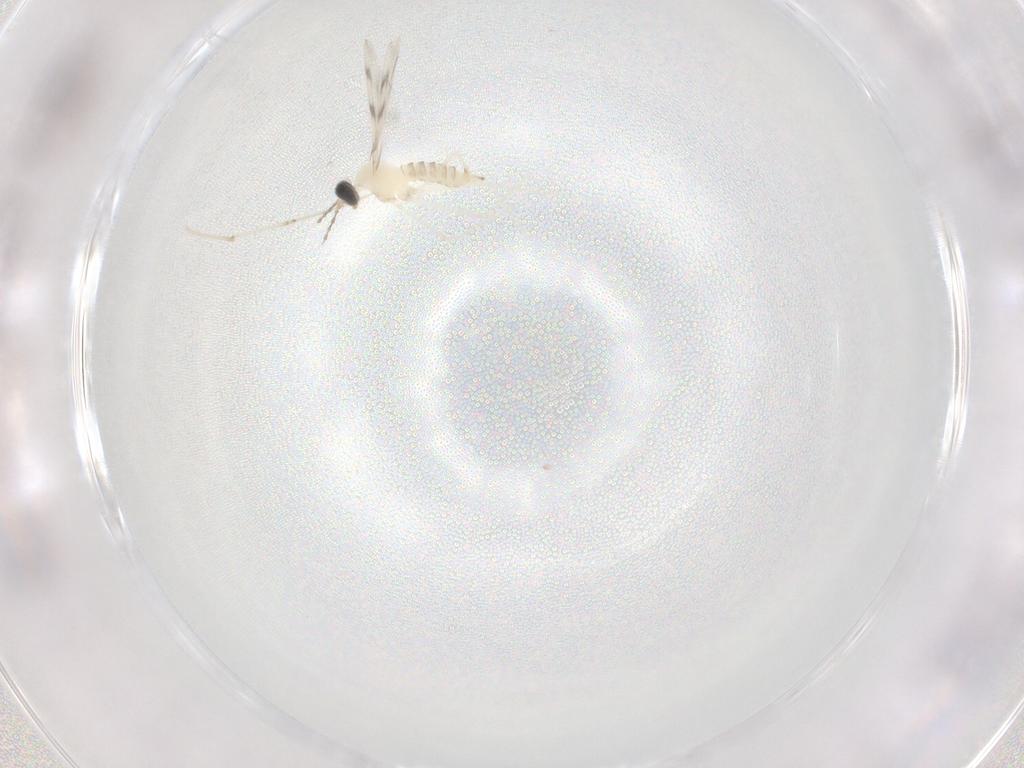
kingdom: Animalia
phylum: Arthropoda
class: Insecta
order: Diptera
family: Cecidomyiidae
